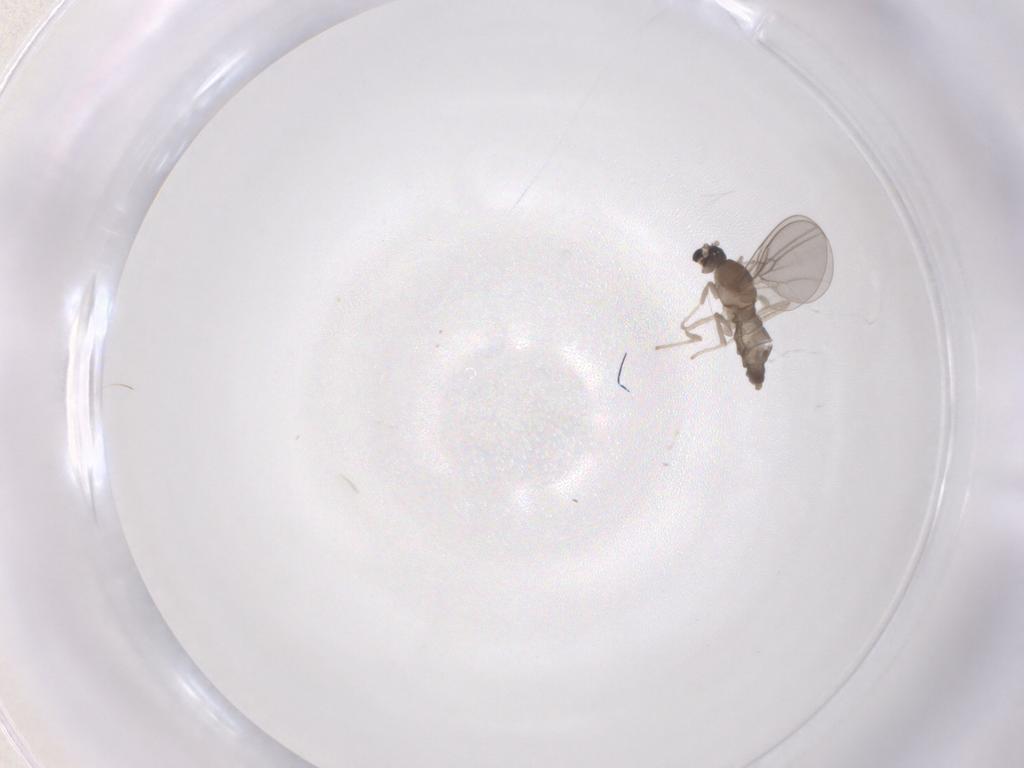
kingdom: Animalia
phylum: Arthropoda
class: Insecta
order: Diptera
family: Cecidomyiidae
